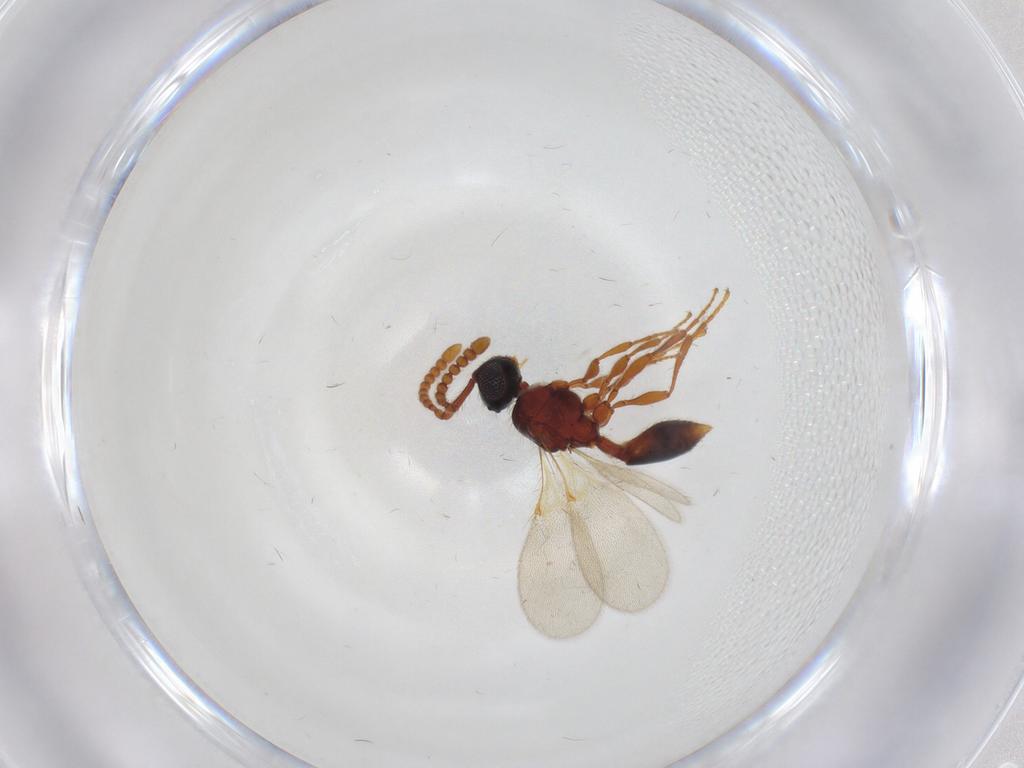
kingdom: Animalia
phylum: Arthropoda
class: Insecta
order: Hymenoptera
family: Diapriidae
